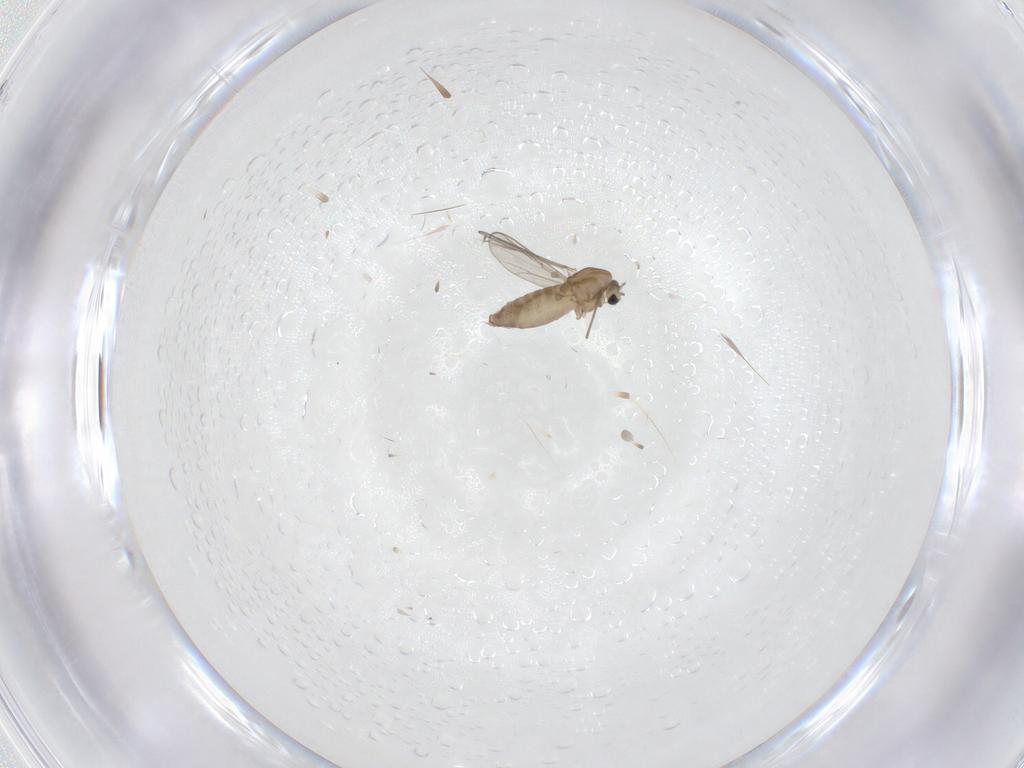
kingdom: Animalia
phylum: Arthropoda
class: Insecta
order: Diptera
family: Chironomidae
